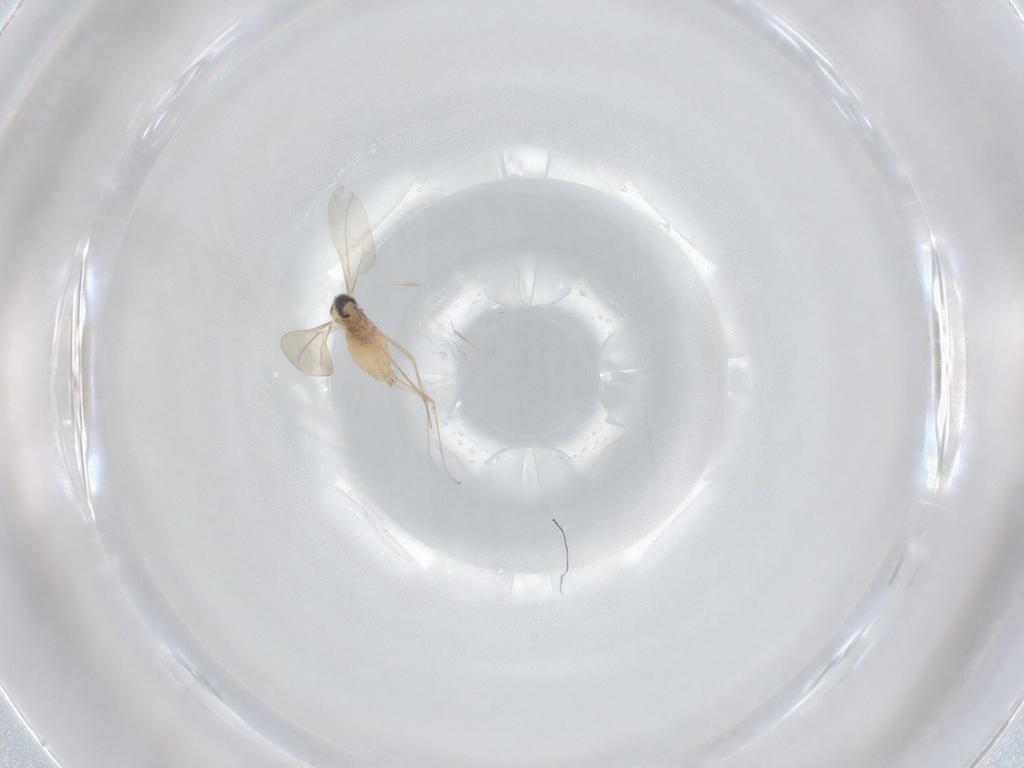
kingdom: Animalia
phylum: Arthropoda
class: Insecta
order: Diptera
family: Cecidomyiidae
